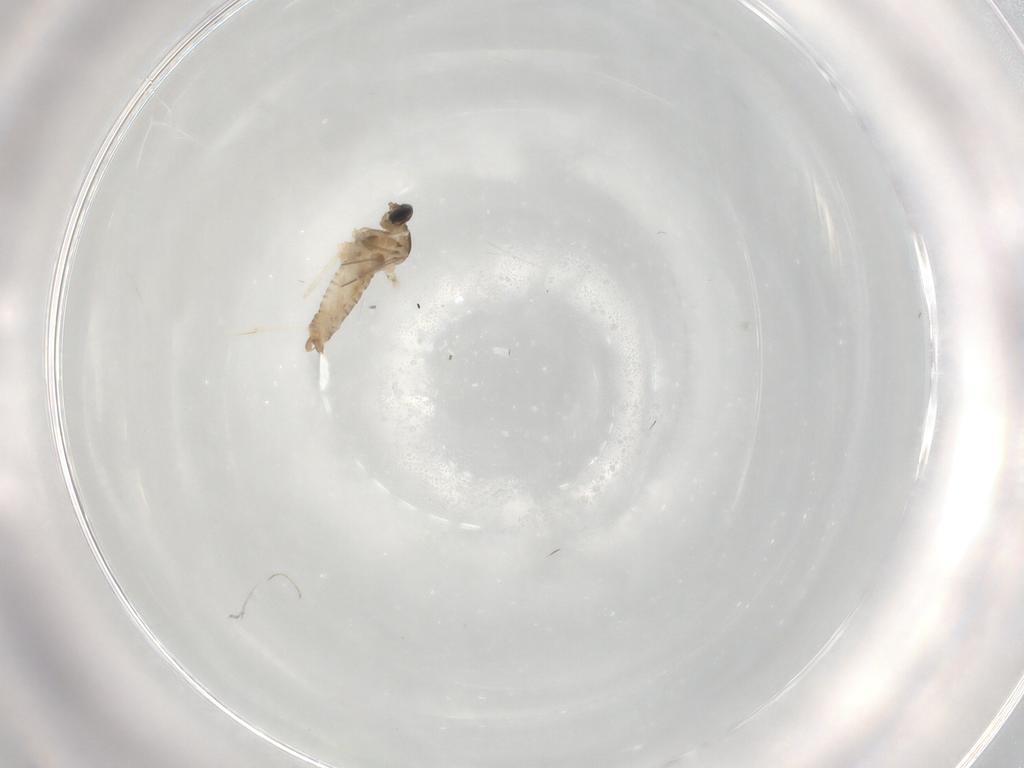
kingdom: Animalia
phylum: Arthropoda
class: Insecta
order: Diptera
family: Cecidomyiidae
